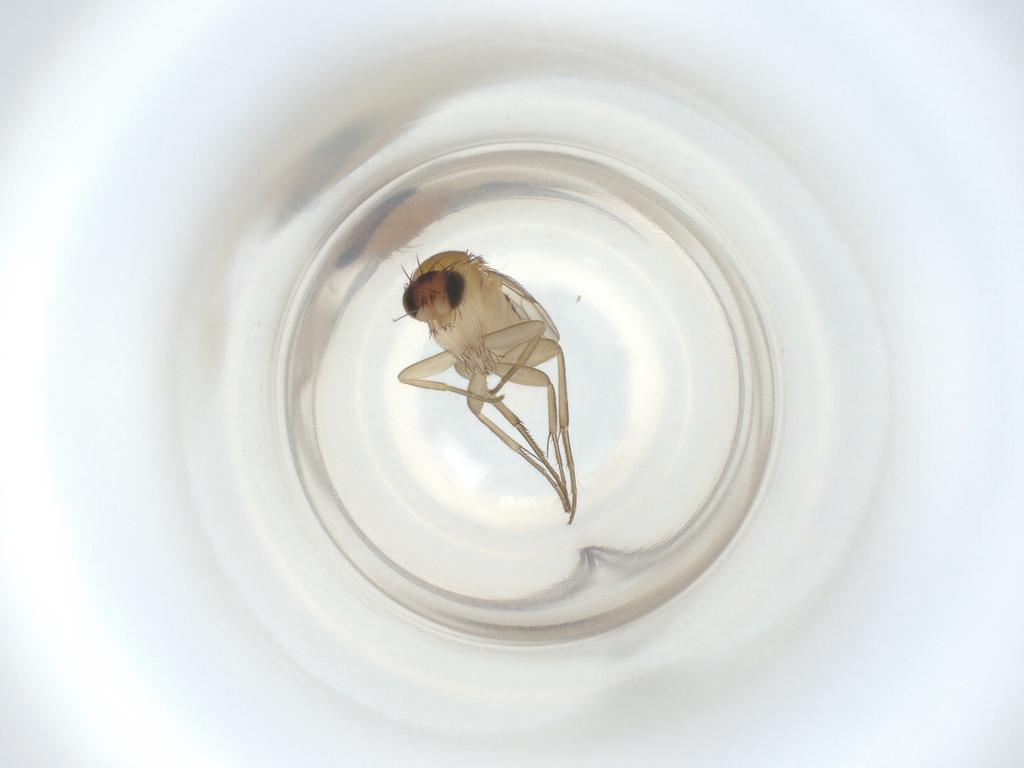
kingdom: Animalia
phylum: Arthropoda
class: Insecta
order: Diptera
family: Phoridae
